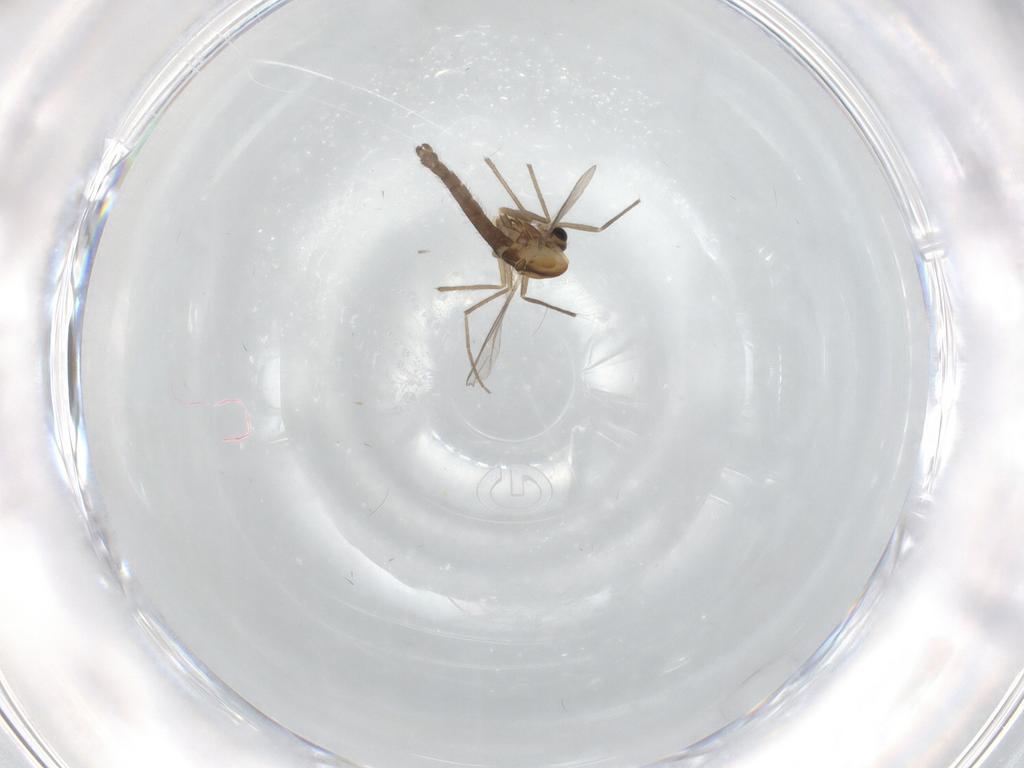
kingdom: Animalia
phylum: Arthropoda
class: Insecta
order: Diptera
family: Chironomidae
